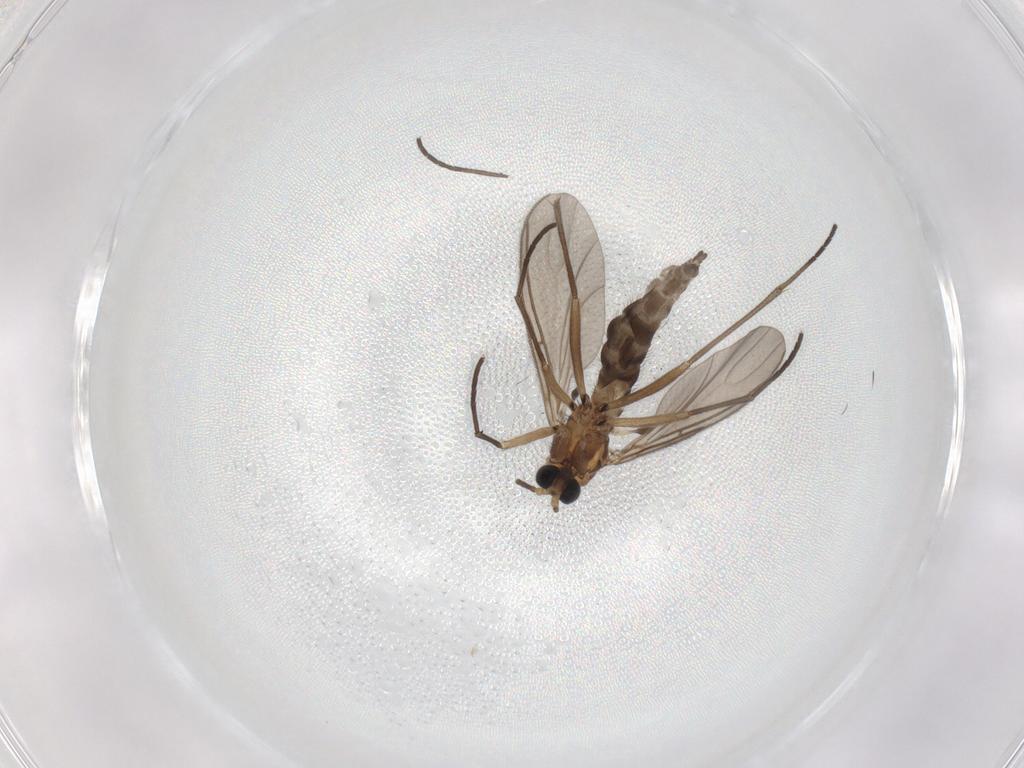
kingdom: Animalia
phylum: Arthropoda
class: Insecta
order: Diptera
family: Sciaridae
